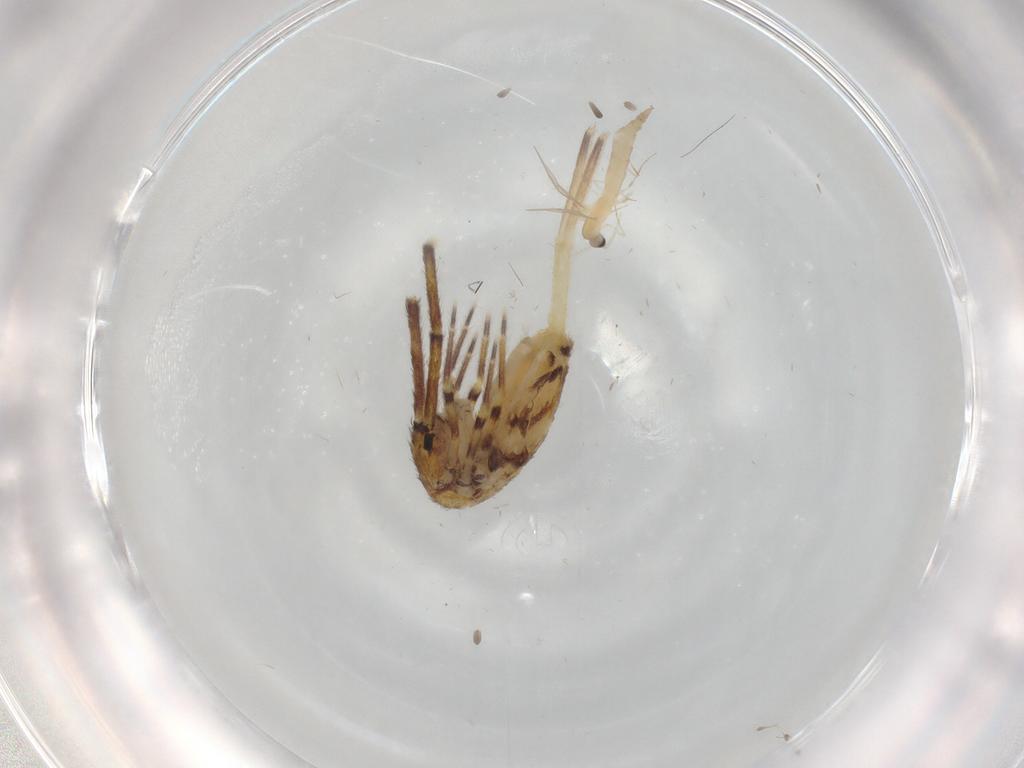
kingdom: Animalia
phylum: Arthropoda
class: Insecta
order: Diptera
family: Cecidomyiidae
